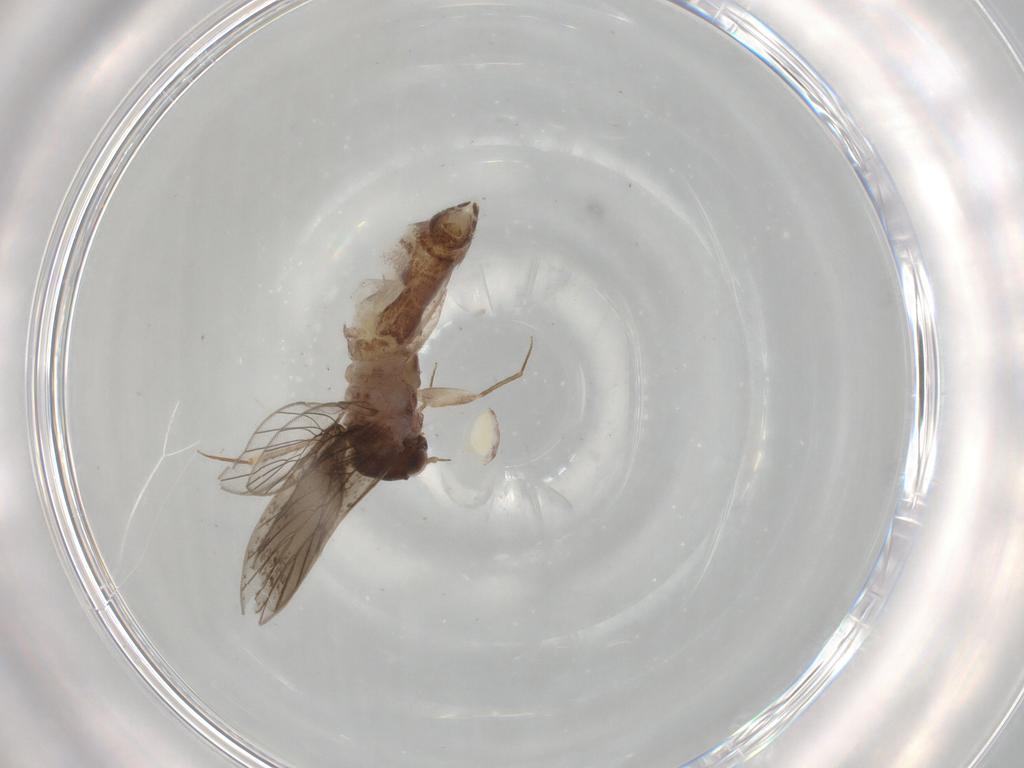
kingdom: Animalia
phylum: Arthropoda
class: Insecta
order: Psocodea
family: Lepidopsocidae
